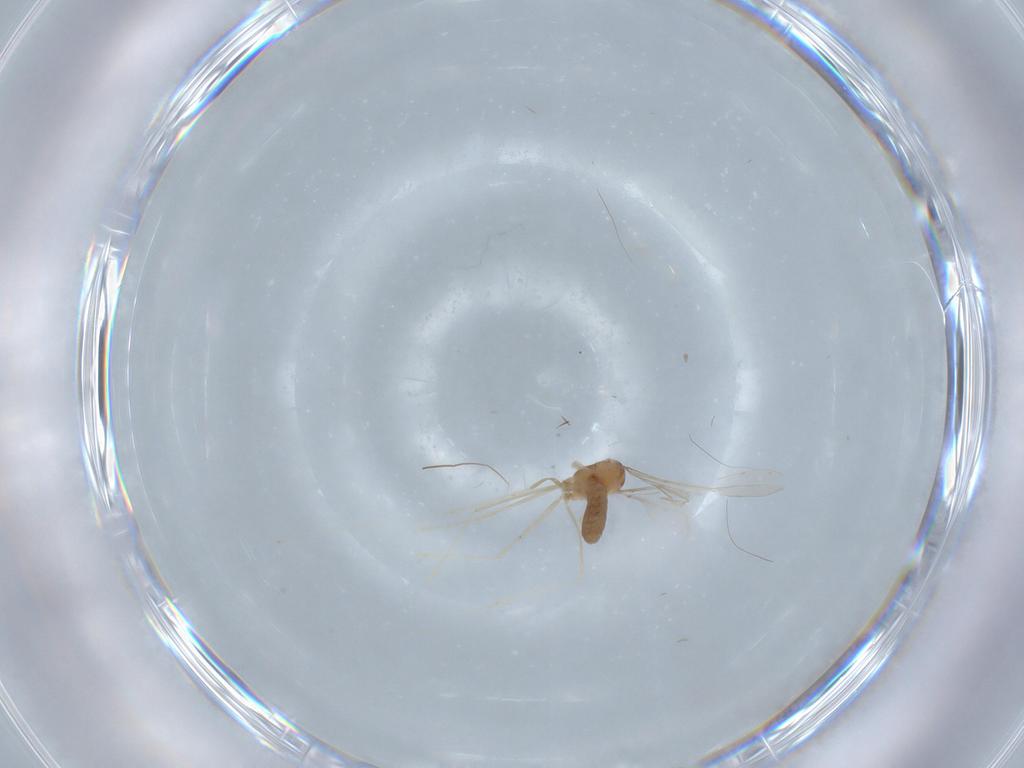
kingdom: Animalia
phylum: Arthropoda
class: Insecta
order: Diptera
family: Cecidomyiidae
